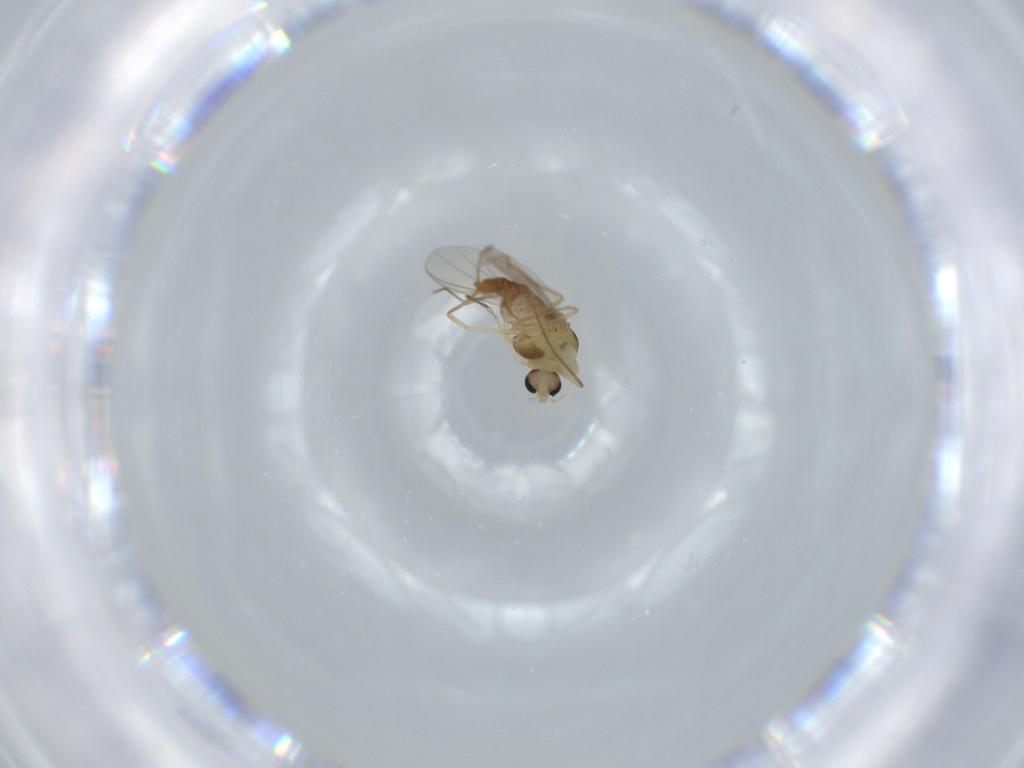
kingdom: Animalia
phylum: Arthropoda
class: Insecta
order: Diptera
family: Chironomidae
